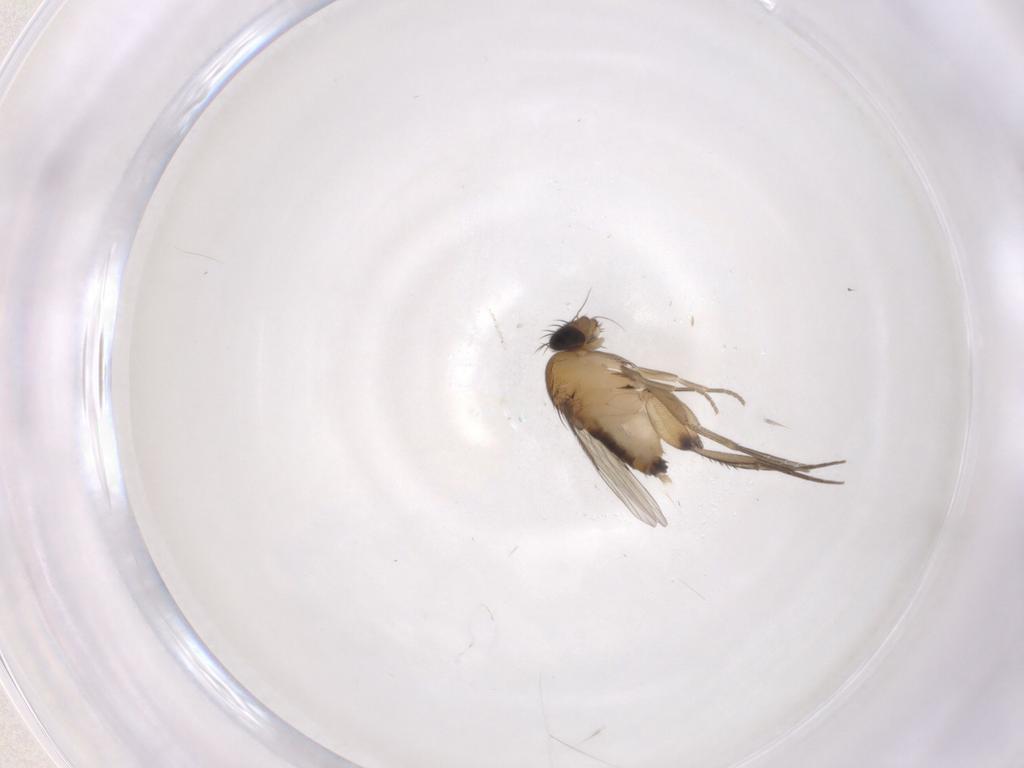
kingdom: Animalia
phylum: Arthropoda
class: Insecta
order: Diptera
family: Phoridae
